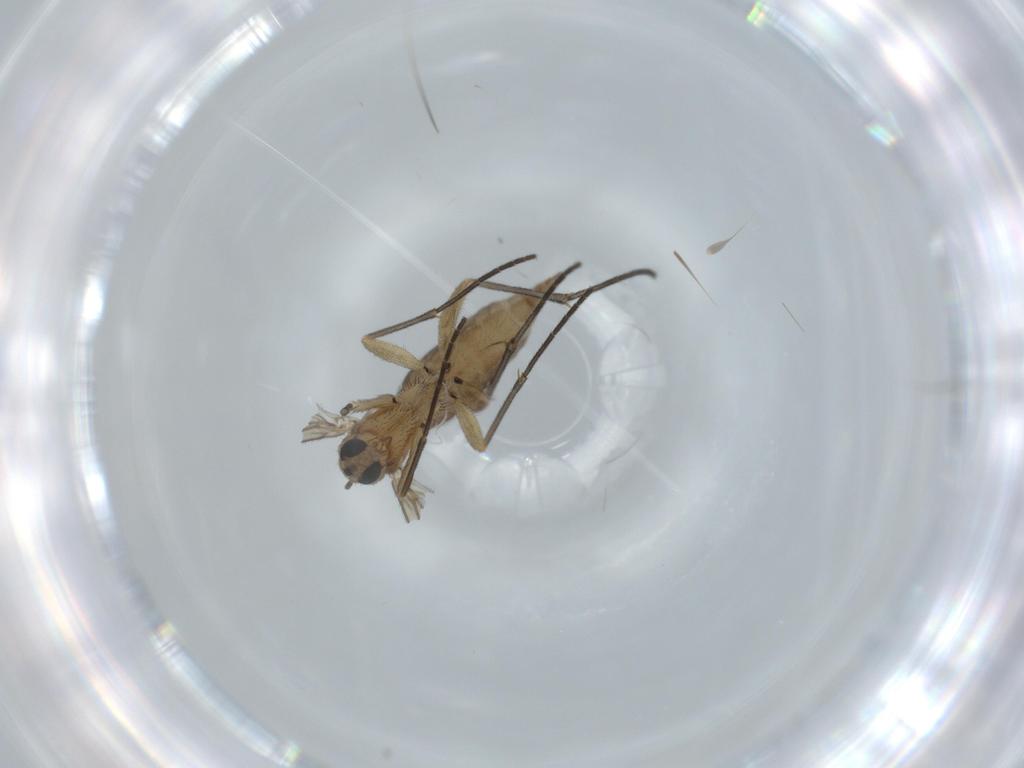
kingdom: Animalia
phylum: Arthropoda
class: Insecta
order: Diptera
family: Sciaridae
